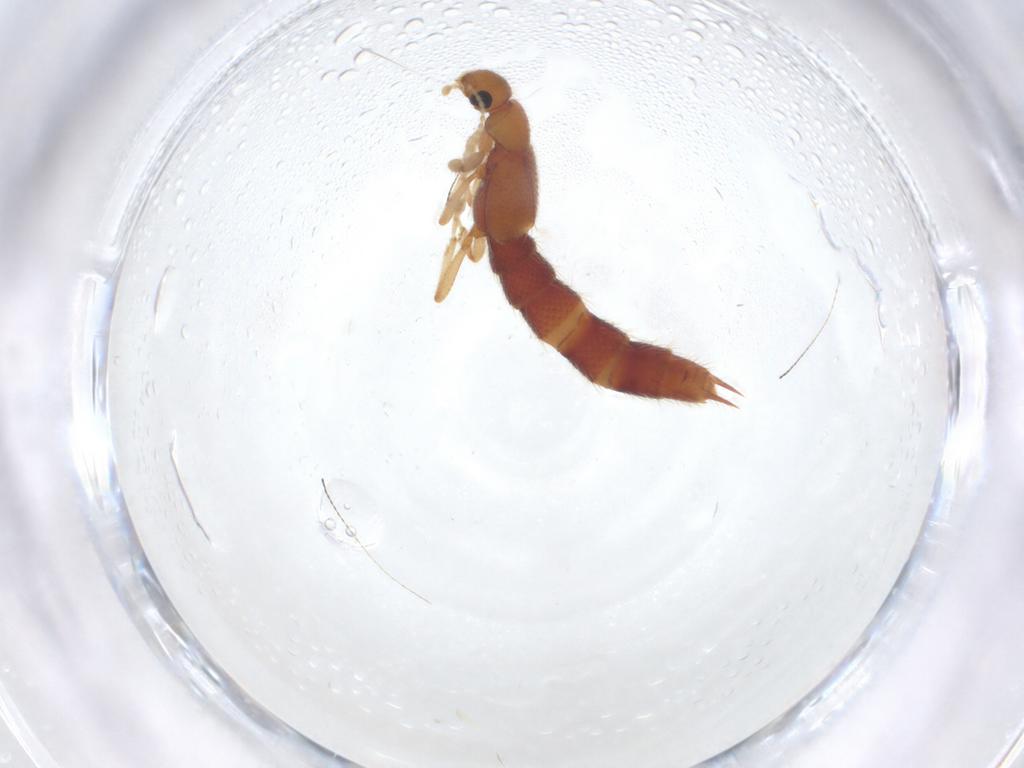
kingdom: Animalia
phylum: Arthropoda
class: Insecta
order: Coleoptera
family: Staphylinidae
